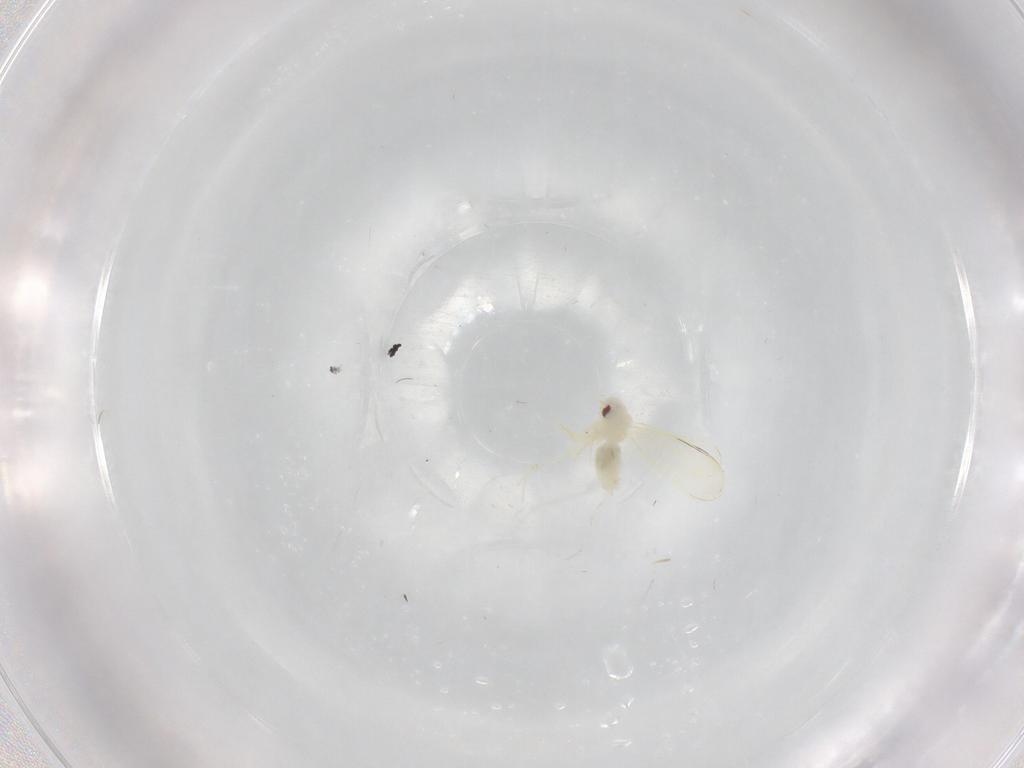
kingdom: Animalia
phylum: Arthropoda
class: Insecta
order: Hemiptera
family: Aleyrodidae
